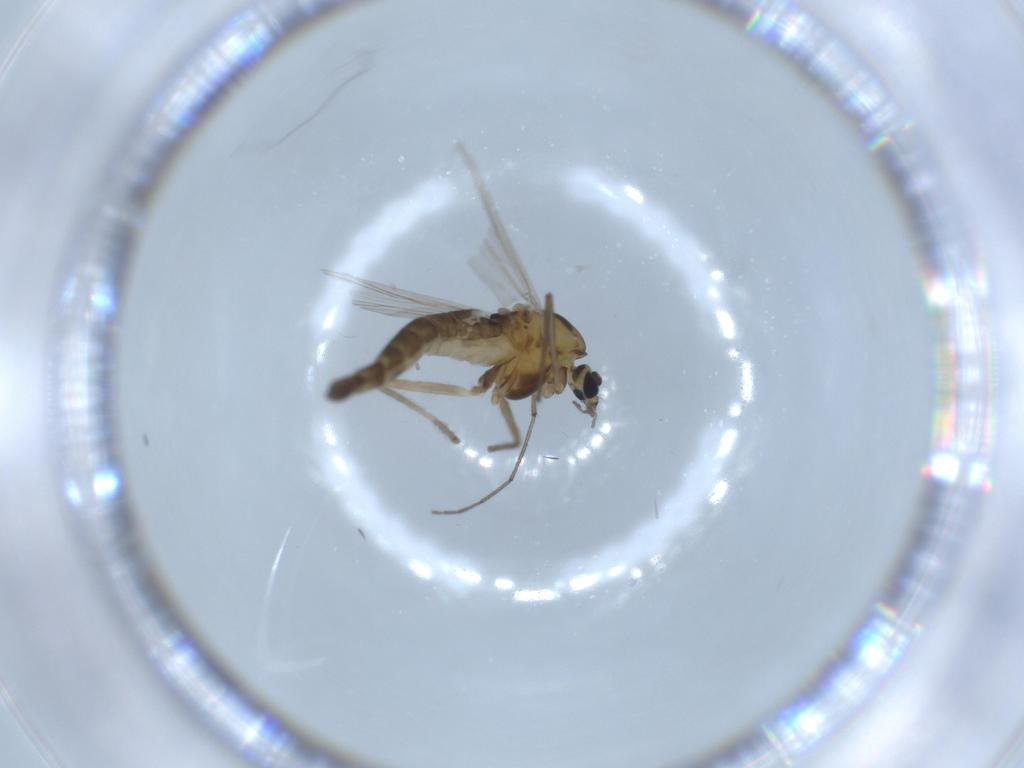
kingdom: Animalia
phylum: Arthropoda
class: Insecta
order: Diptera
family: Chironomidae
